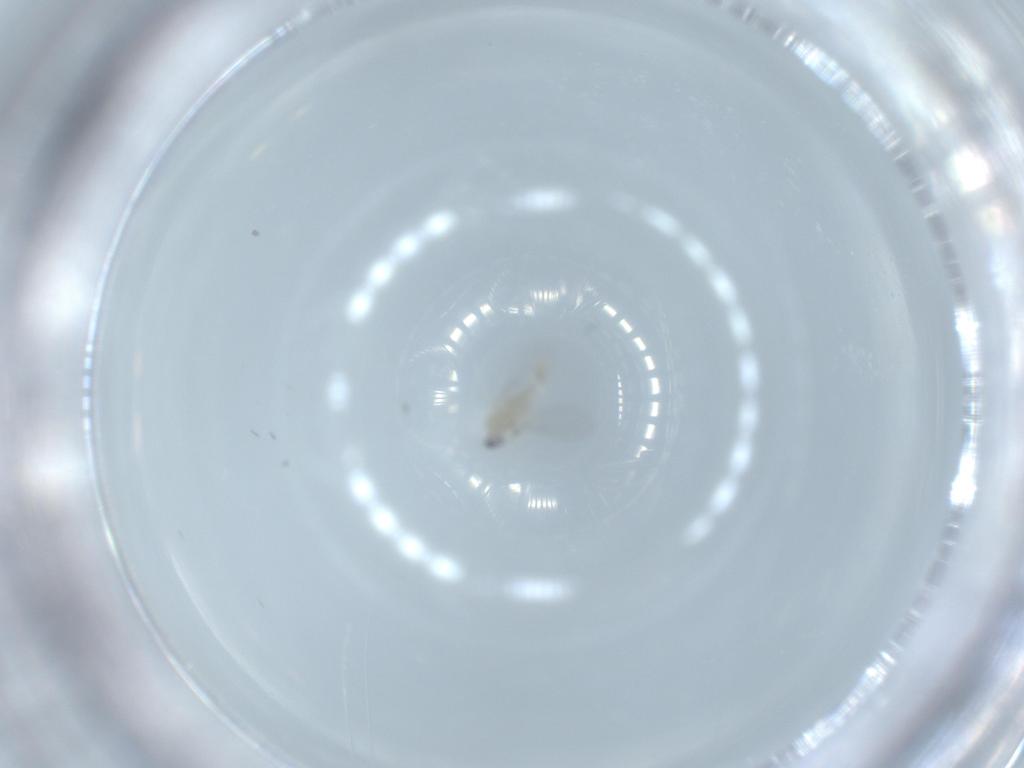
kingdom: Animalia
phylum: Arthropoda
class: Insecta
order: Diptera
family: Cecidomyiidae
